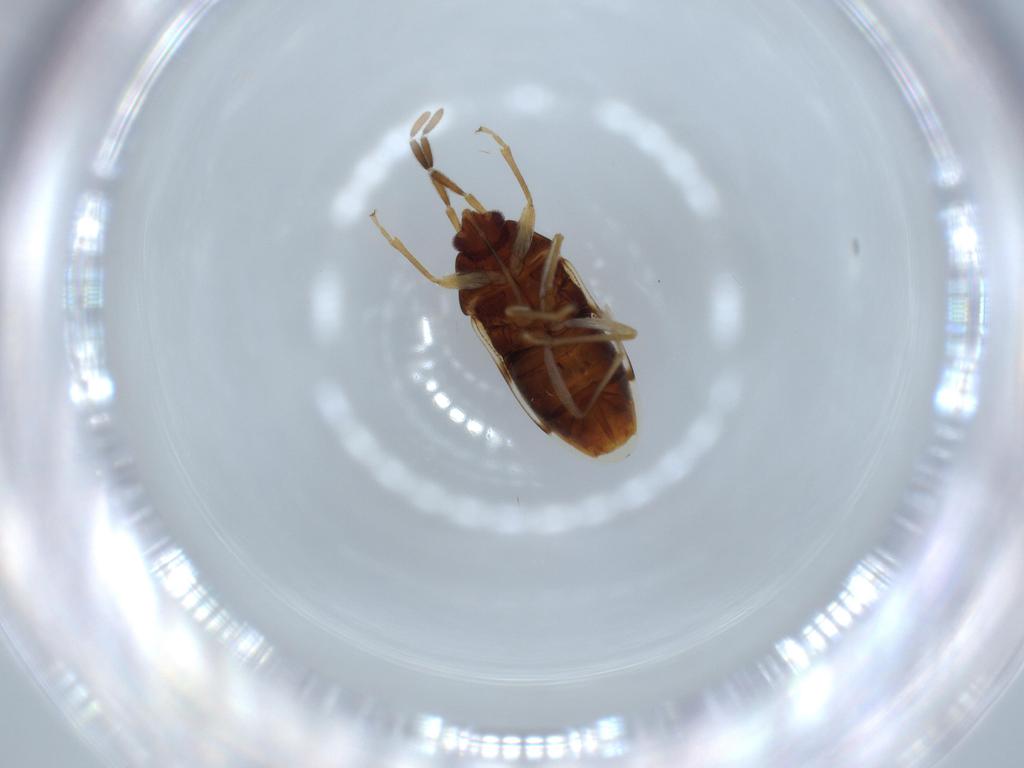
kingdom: Animalia
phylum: Arthropoda
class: Insecta
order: Hemiptera
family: Rhyparochromidae
